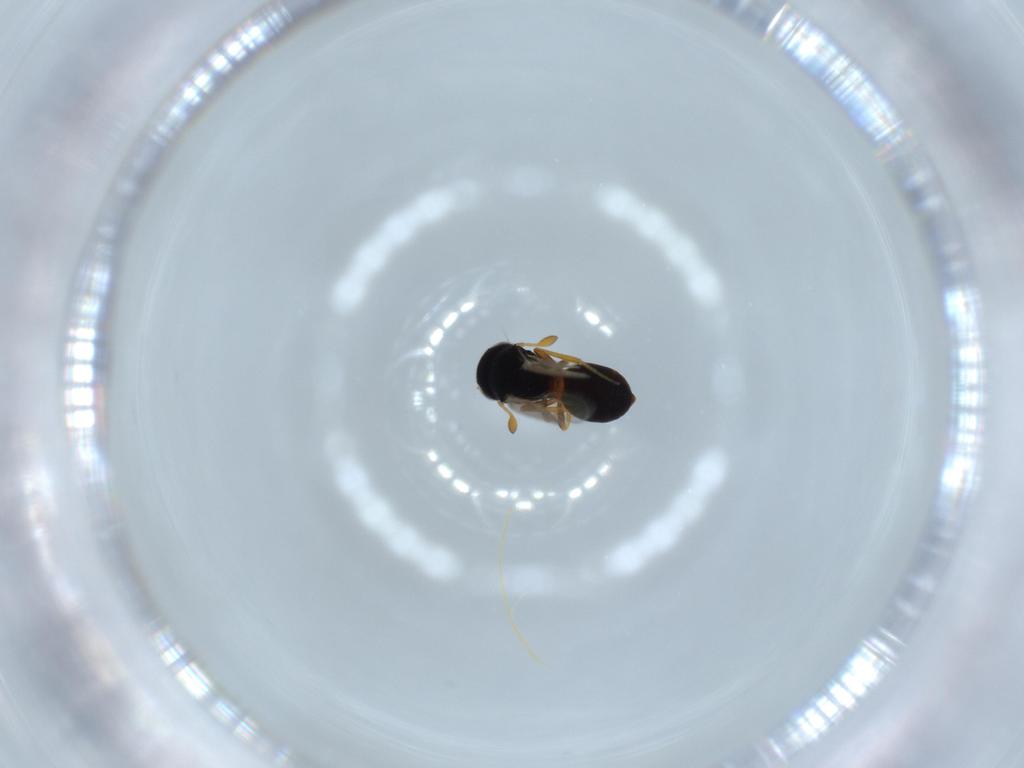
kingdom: Animalia
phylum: Arthropoda
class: Insecta
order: Hymenoptera
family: Scelionidae
